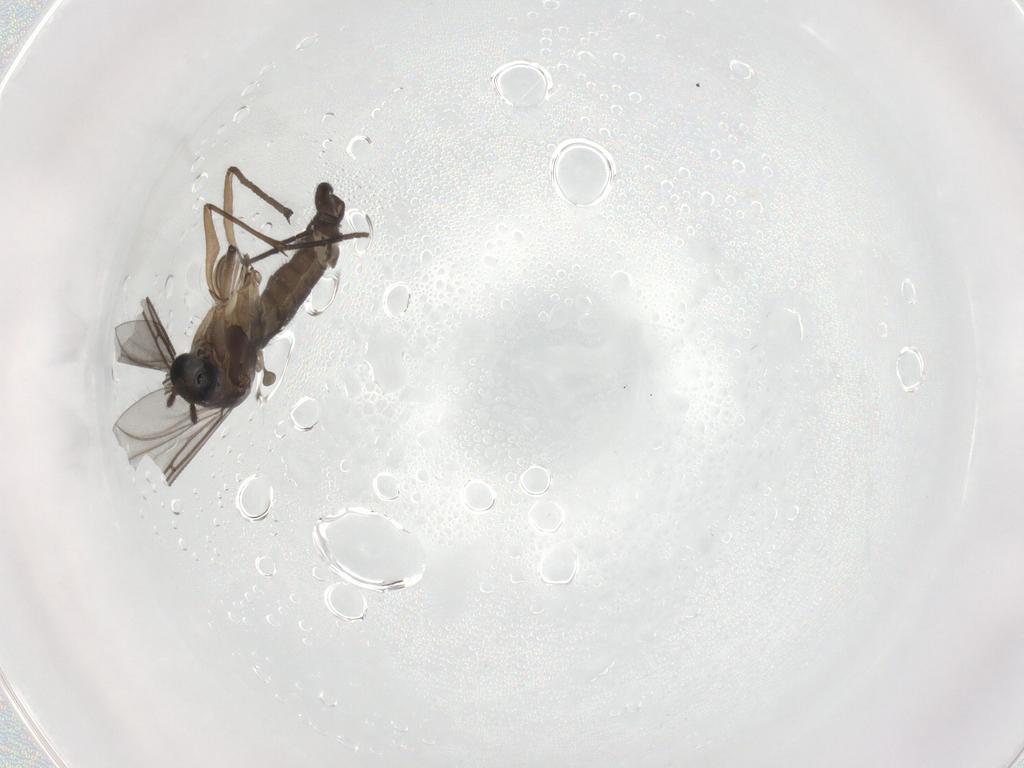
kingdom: Animalia
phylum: Arthropoda
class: Insecta
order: Diptera
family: Sciaridae
